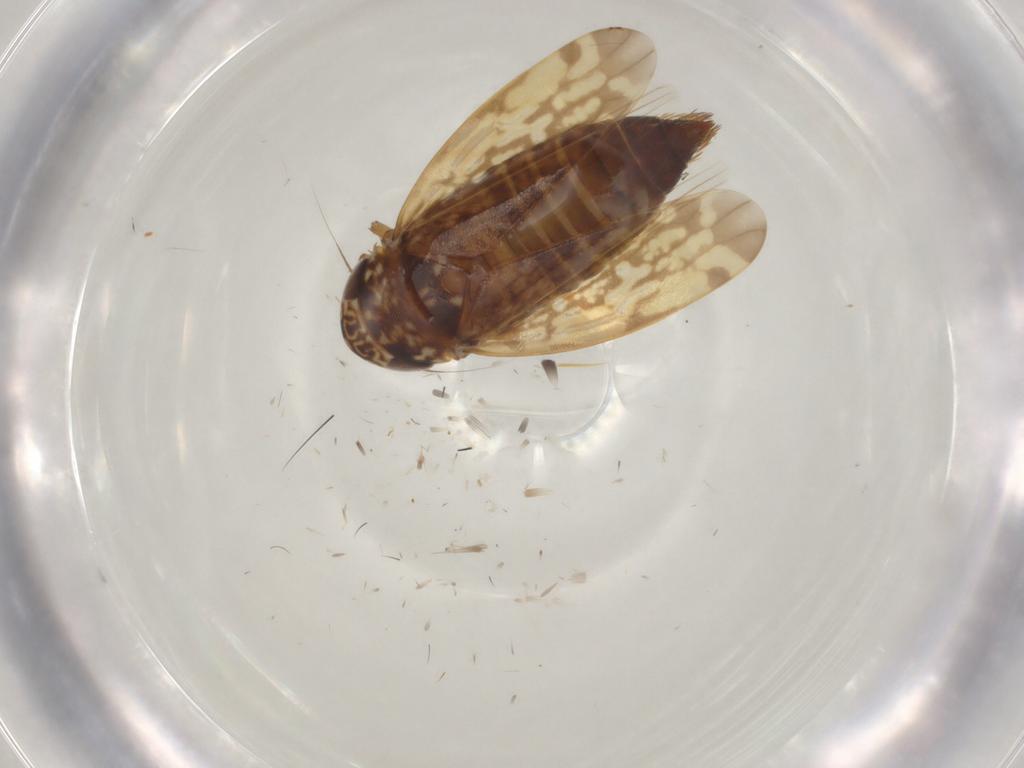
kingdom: Animalia
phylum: Arthropoda
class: Insecta
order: Hemiptera
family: Cicadellidae
